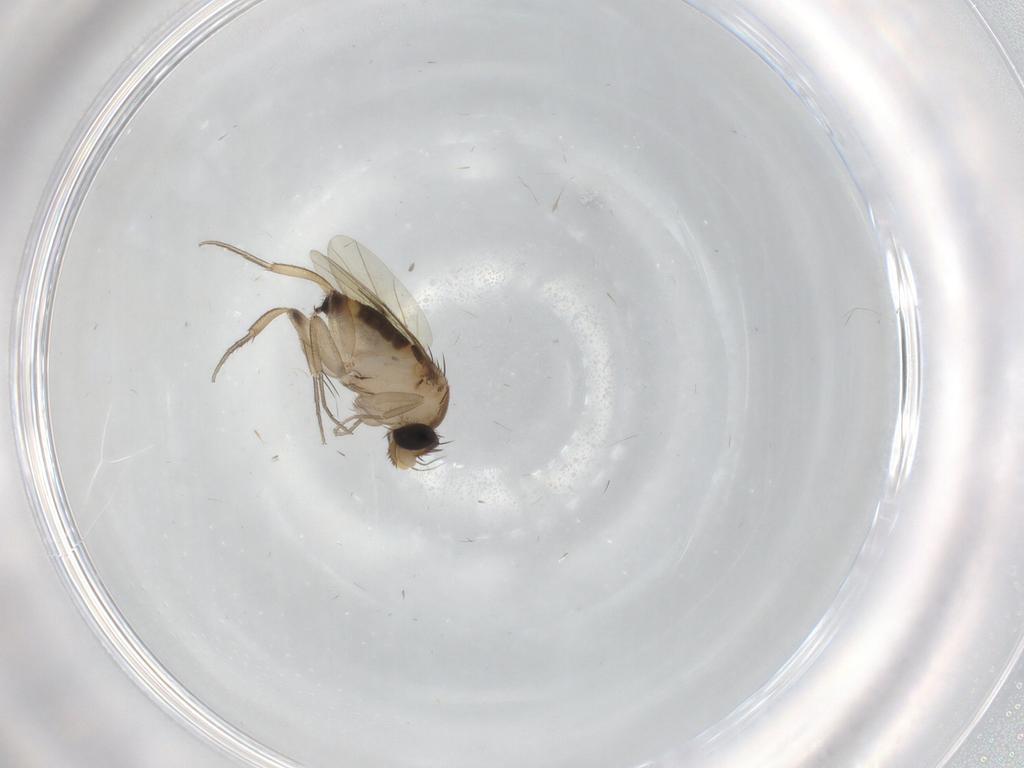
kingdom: Animalia
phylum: Arthropoda
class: Insecta
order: Diptera
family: Phoridae
